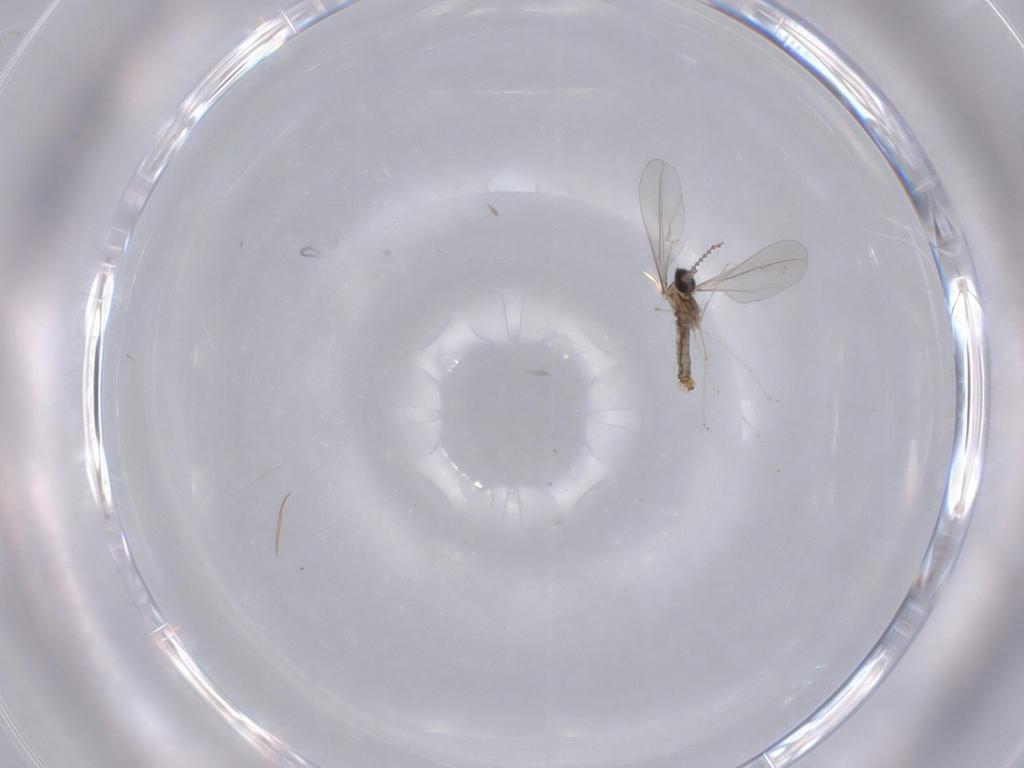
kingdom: Animalia
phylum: Arthropoda
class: Insecta
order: Diptera
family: Cecidomyiidae
